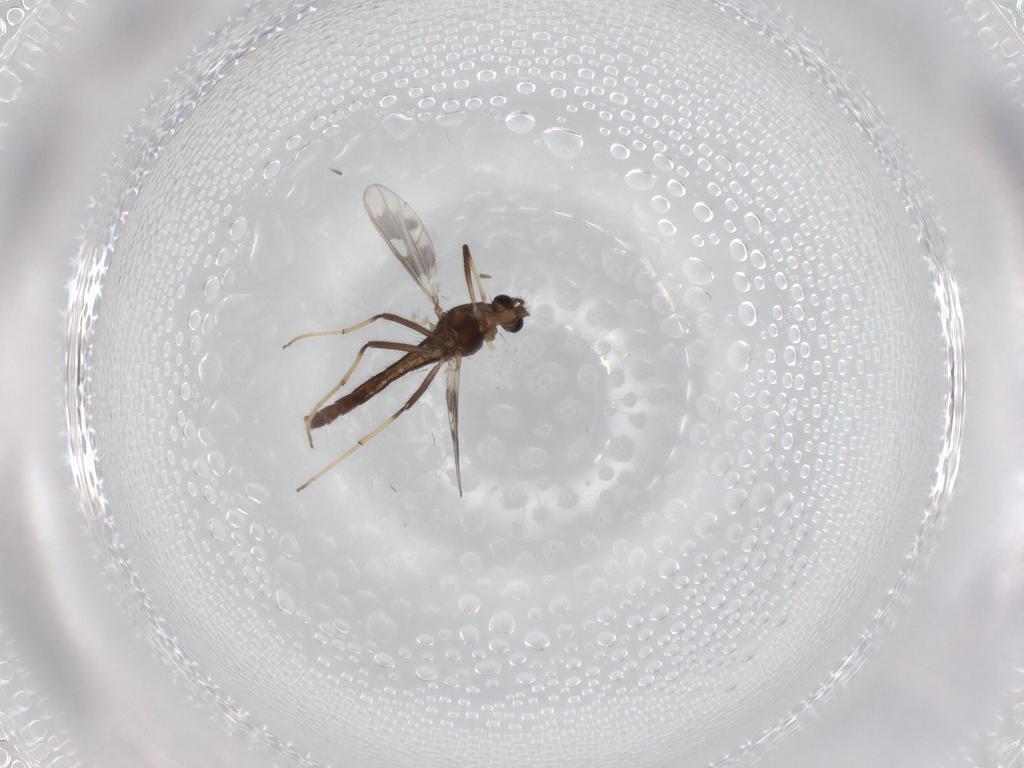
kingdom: Animalia
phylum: Arthropoda
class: Insecta
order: Diptera
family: Chironomidae
